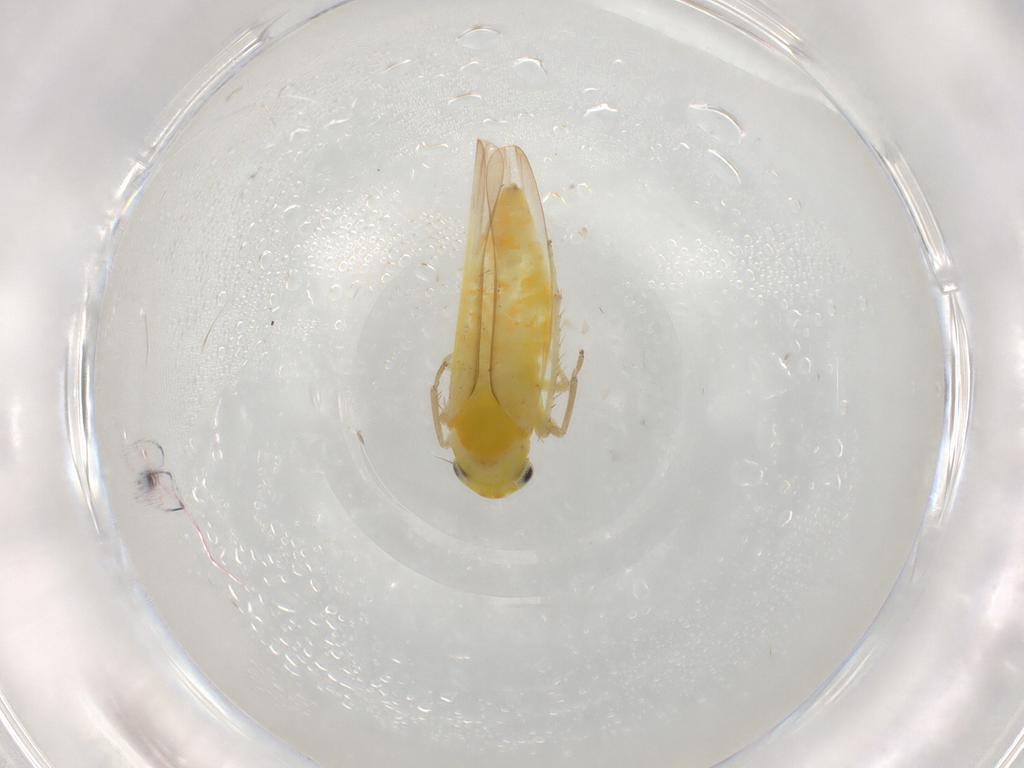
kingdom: Animalia
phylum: Arthropoda
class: Insecta
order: Hemiptera
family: Cicadellidae
